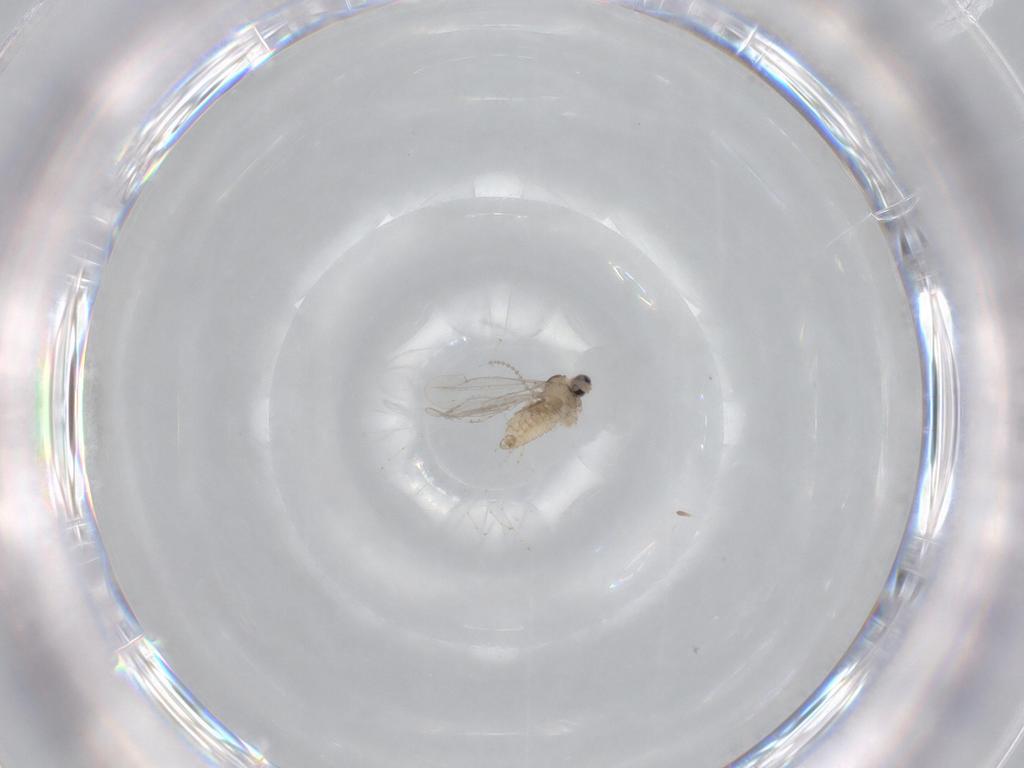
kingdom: Animalia
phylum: Arthropoda
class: Insecta
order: Diptera
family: Cecidomyiidae
